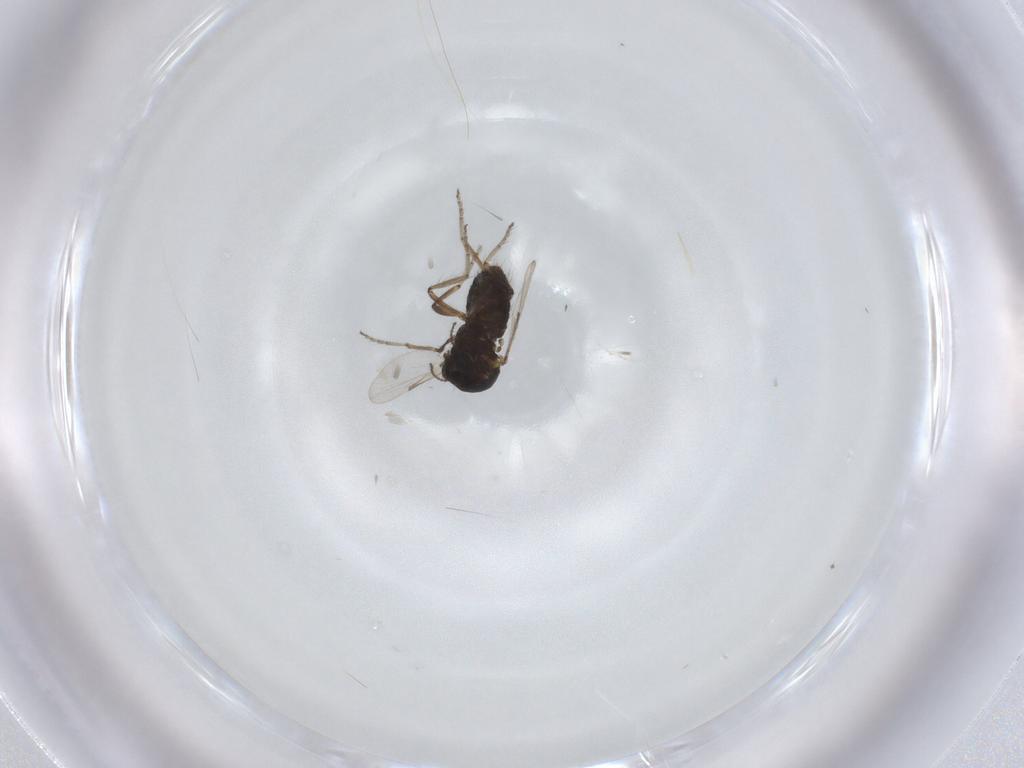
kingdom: Animalia
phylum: Arthropoda
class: Insecta
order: Diptera
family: Ceratopogonidae
